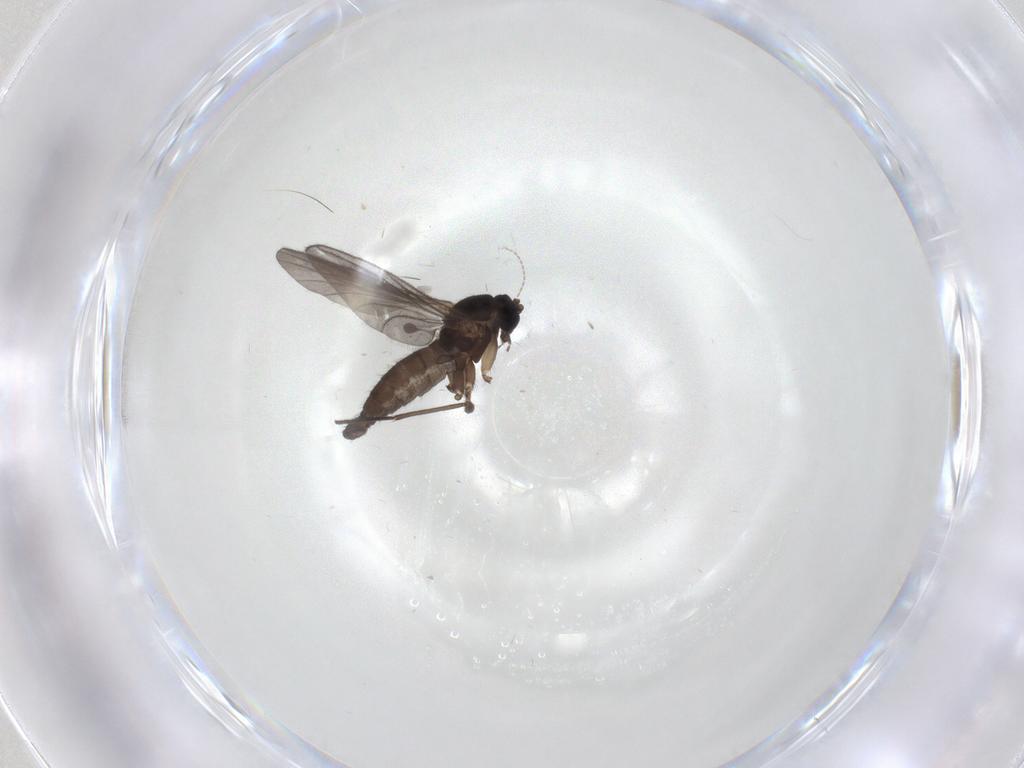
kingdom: Animalia
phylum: Arthropoda
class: Insecta
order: Diptera
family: Sciaridae
